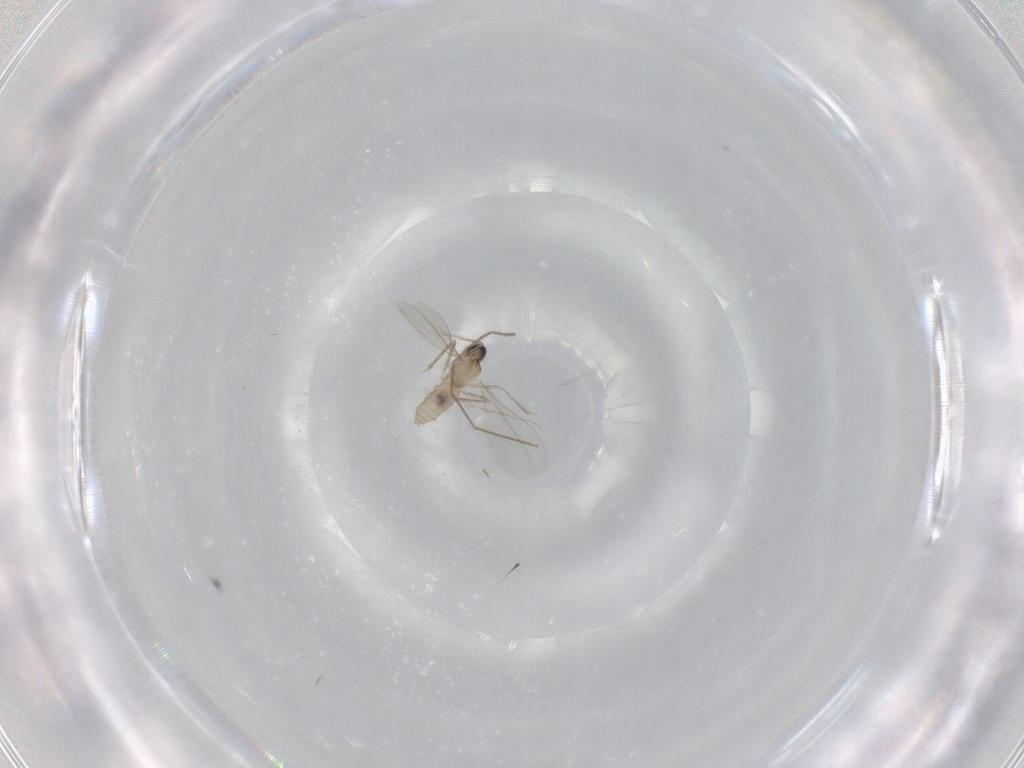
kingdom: Animalia
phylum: Arthropoda
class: Insecta
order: Diptera
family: Chironomidae
